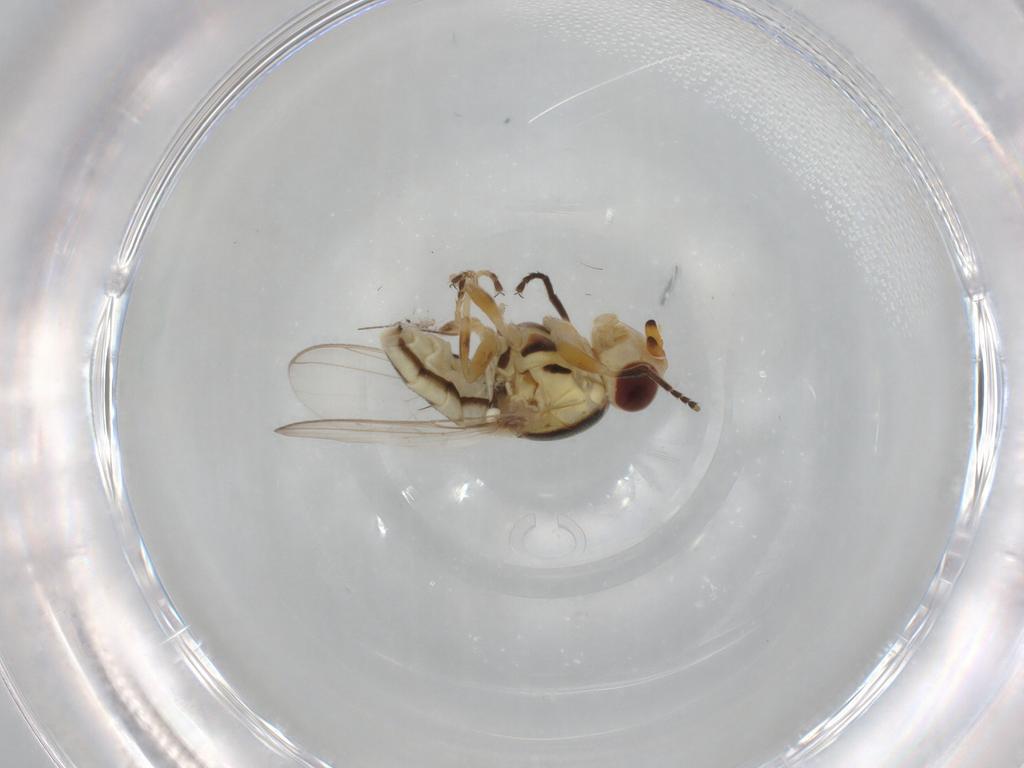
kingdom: Animalia
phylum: Arthropoda
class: Insecta
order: Diptera
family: Chloropidae
